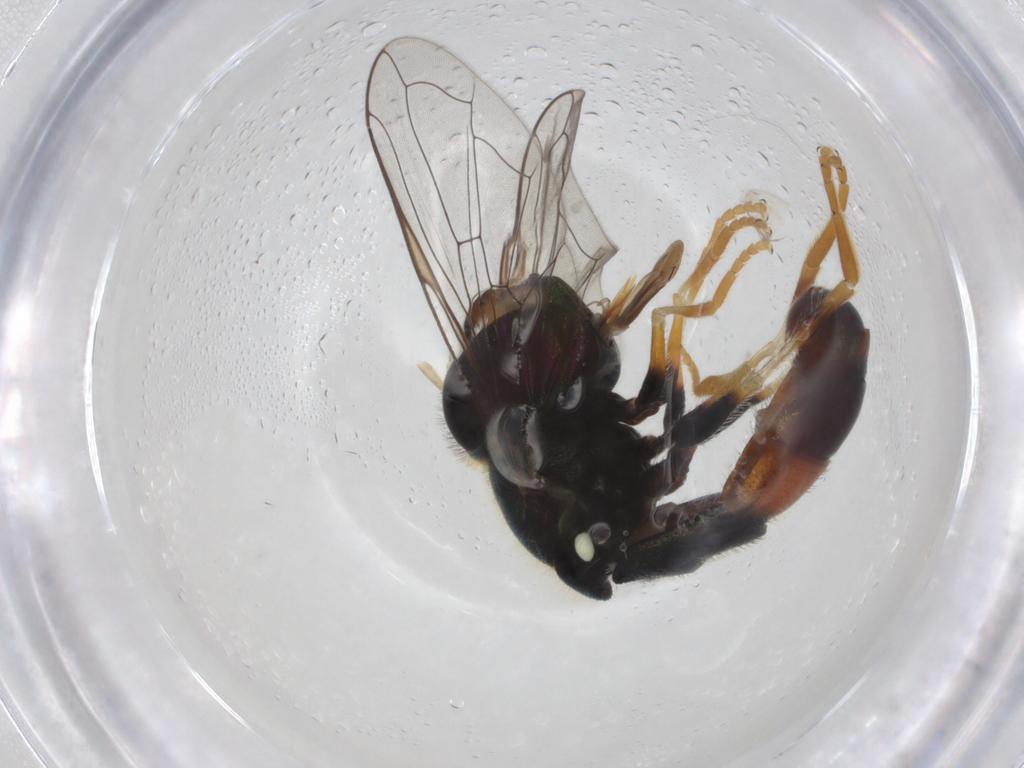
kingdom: Animalia
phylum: Arthropoda
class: Insecta
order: Diptera
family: Syrphidae
